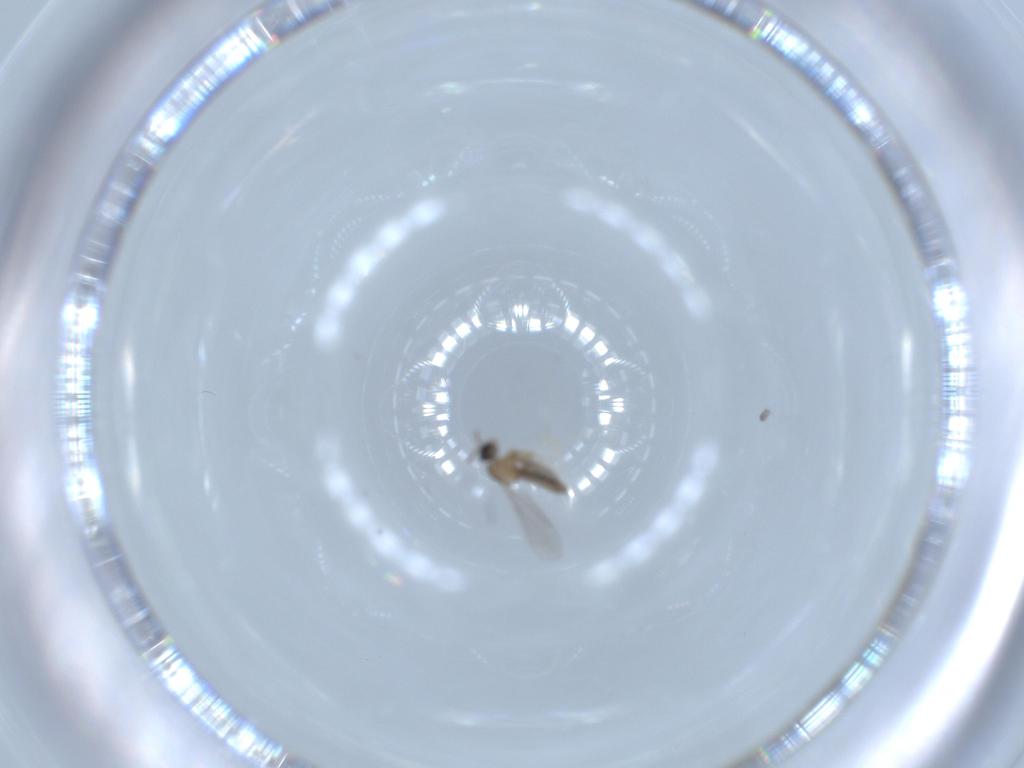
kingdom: Animalia
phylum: Arthropoda
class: Insecta
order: Diptera
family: Cecidomyiidae
